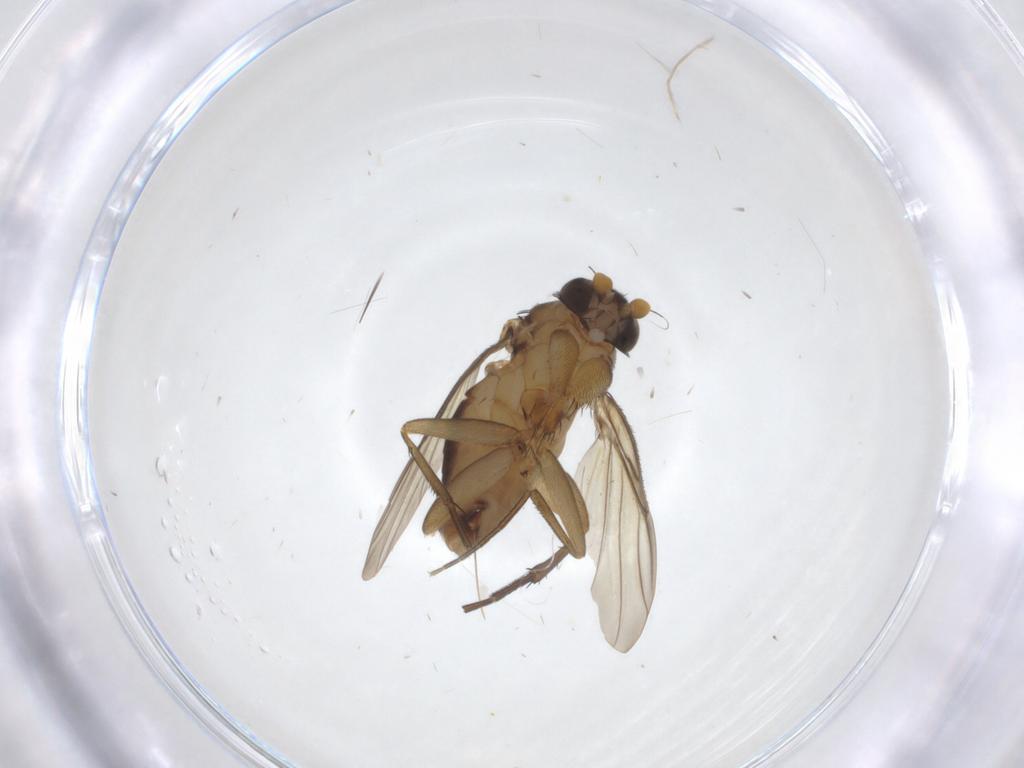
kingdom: Animalia
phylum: Arthropoda
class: Insecta
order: Diptera
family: Phoridae
